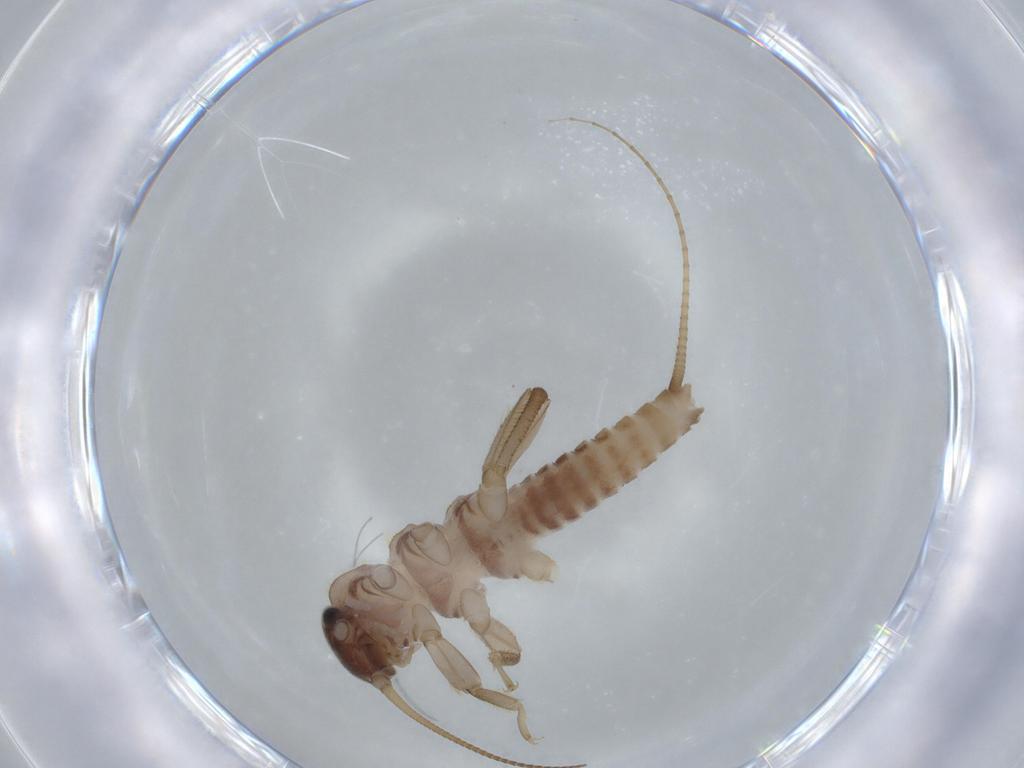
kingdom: Animalia
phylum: Arthropoda
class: Insecta
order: Plecoptera
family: Nemouridae
